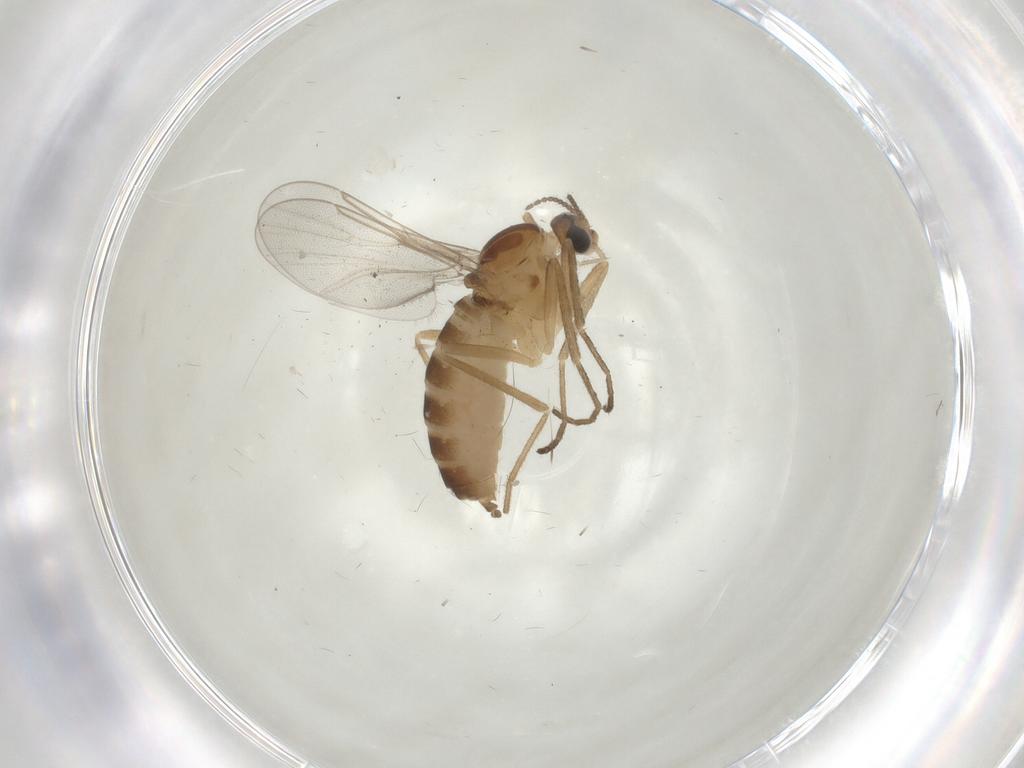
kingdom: Animalia
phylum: Arthropoda
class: Insecta
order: Diptera
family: Cecidomyiidae
